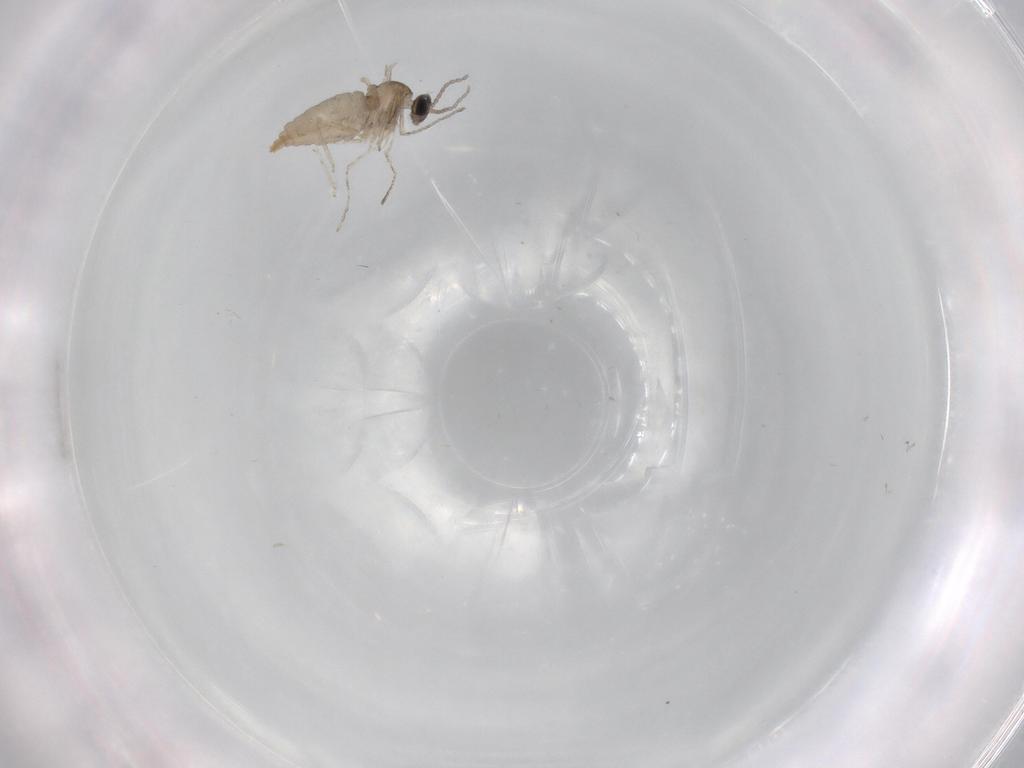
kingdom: Animalia
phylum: Arthropoda
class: Insecta
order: Diptera
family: Cecidomyiidae
